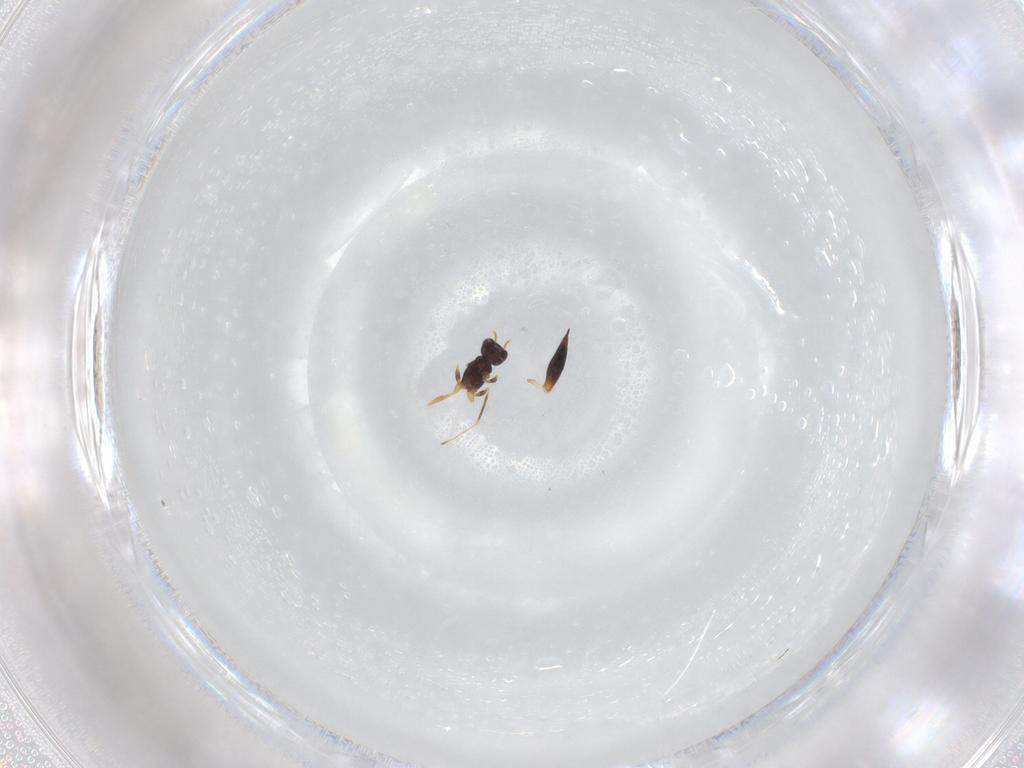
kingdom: Animalia
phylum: Arthropoda
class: Insecta
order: Hymenoptera
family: Mymaridae
